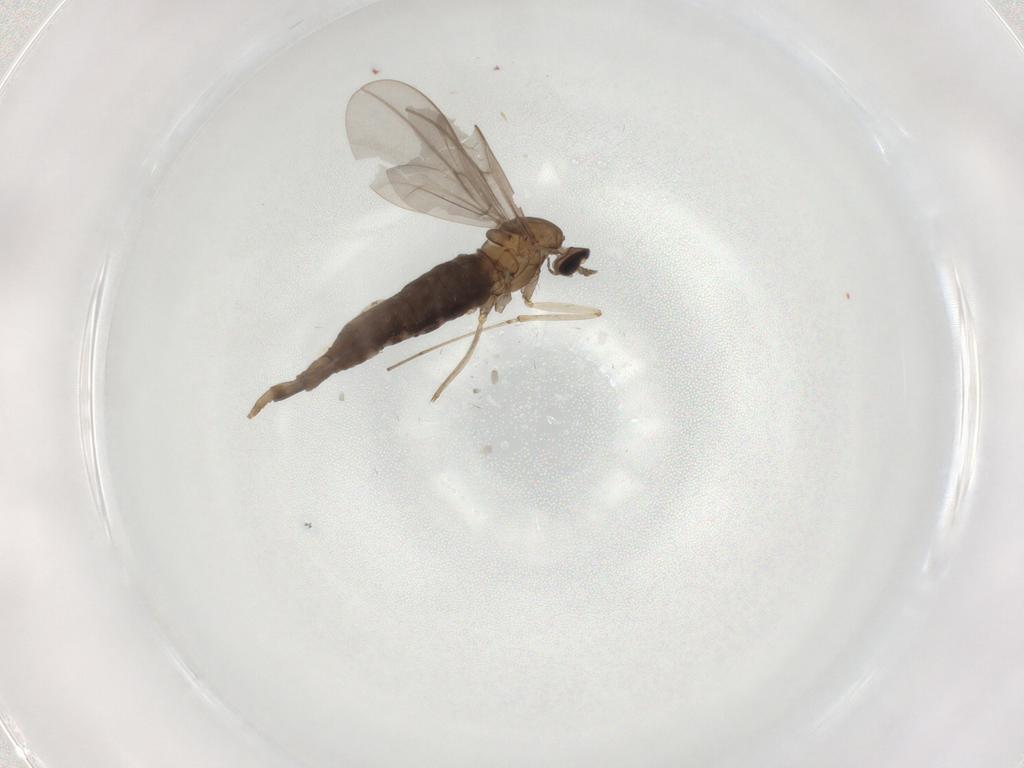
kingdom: Animalia
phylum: Arthropoda
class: Insecta
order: Diptera
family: Cecidomyiidae
